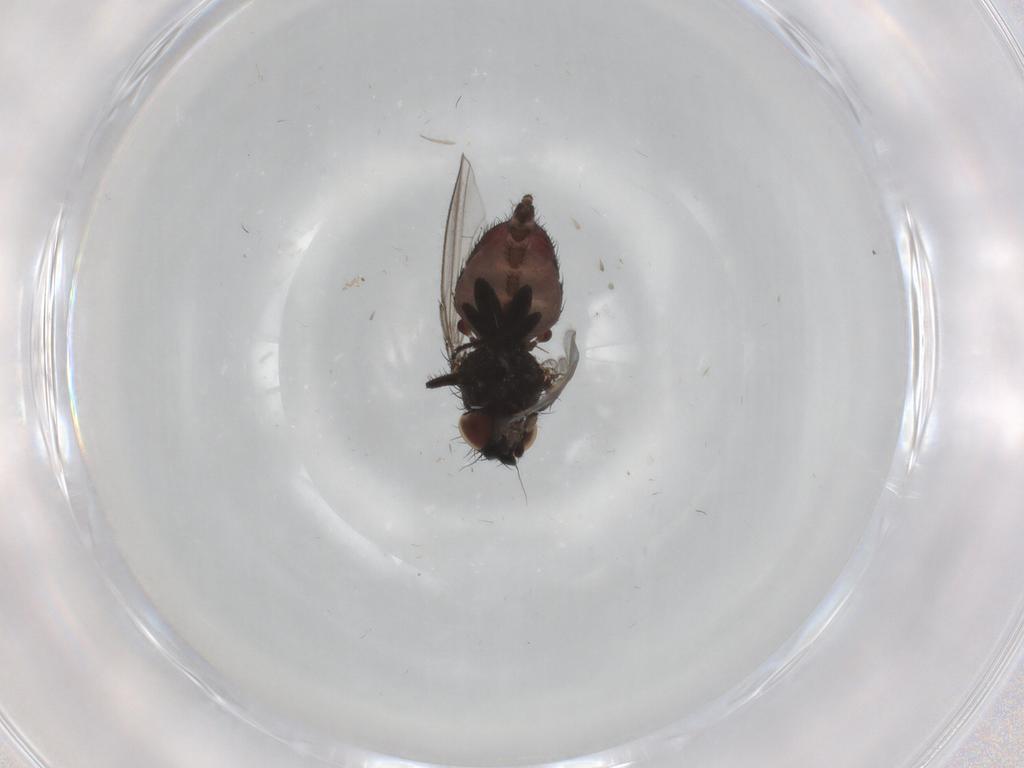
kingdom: Animalia
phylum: Arthropoda
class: Insecta
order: Diptera
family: Milichiidae
